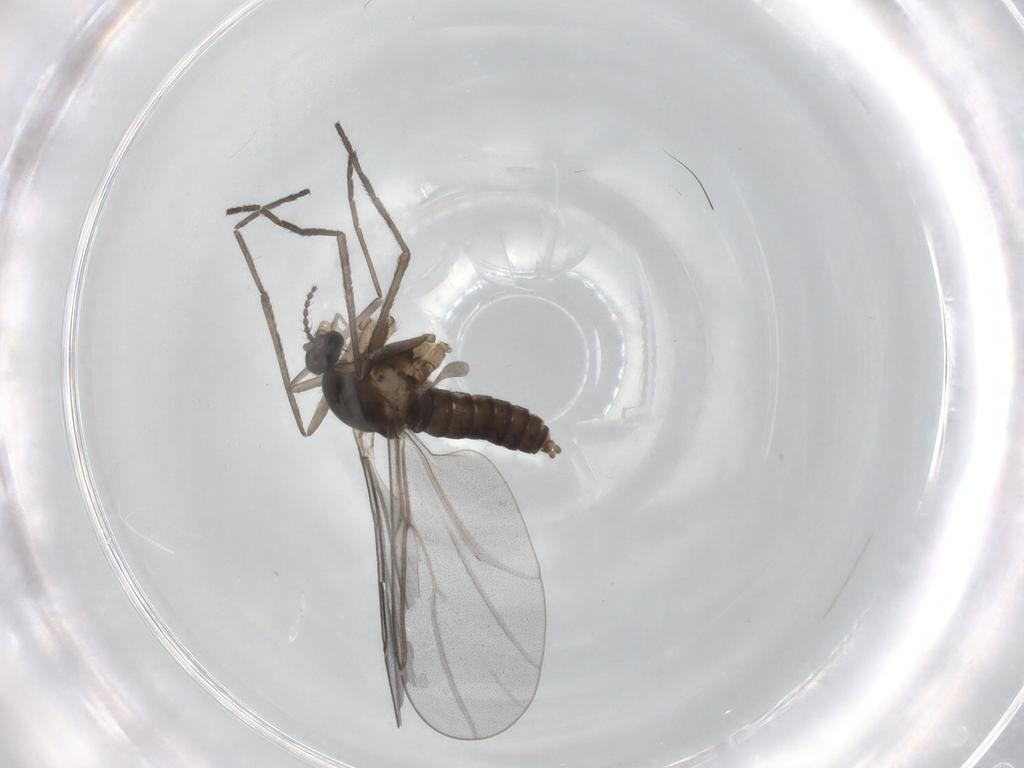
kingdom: Animalia
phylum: Arthropoda
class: Insecta
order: Diptera
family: Cecidomyiidae
